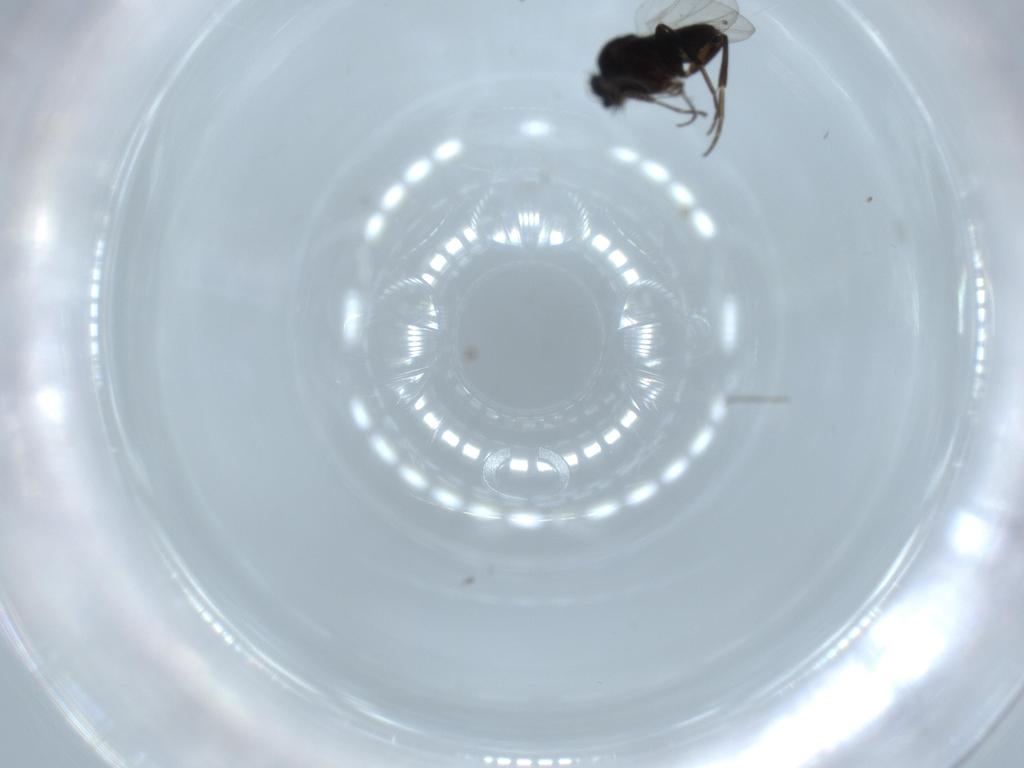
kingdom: Animalia
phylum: Arthropoda
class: Insecta
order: Diptera
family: Phoridae
